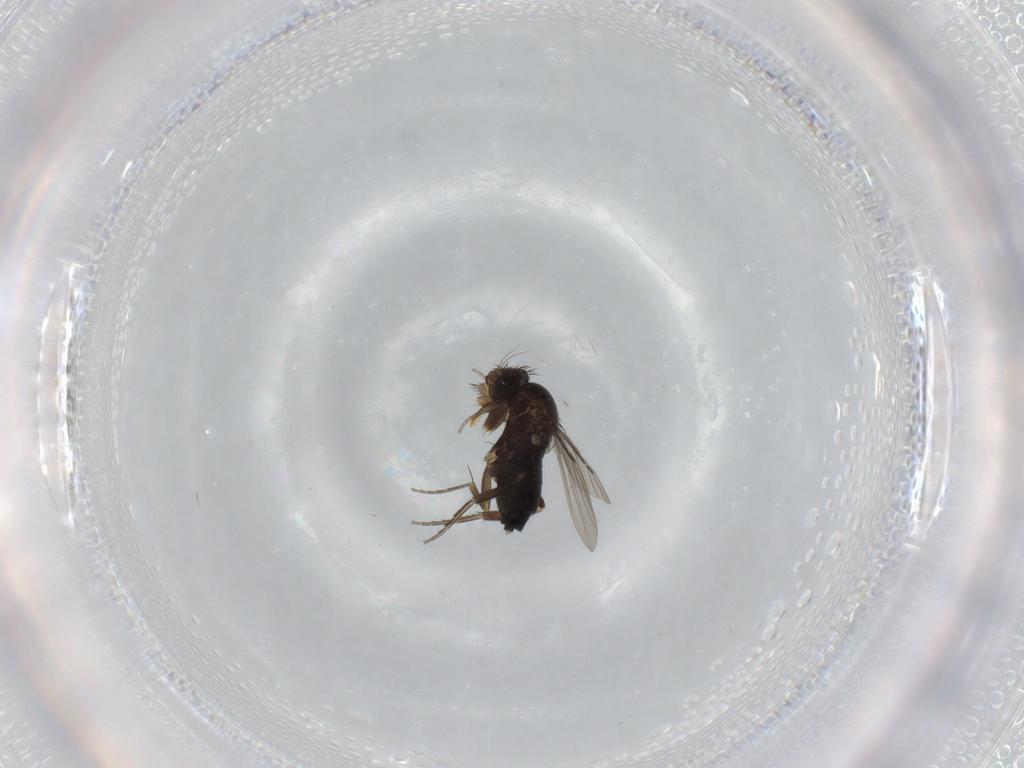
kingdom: Animalia
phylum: Arthropoda
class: Insecta
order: Diptera
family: Phoridae
